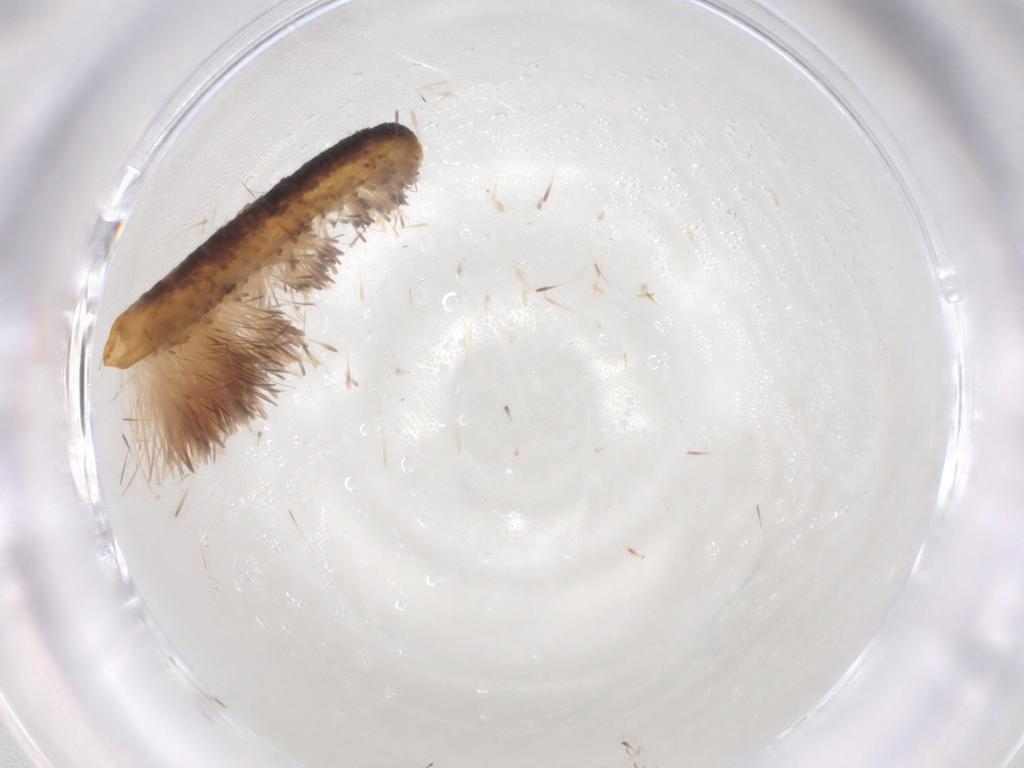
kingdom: Animalia
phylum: Arthropoda
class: Insecta
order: Lepidoptera
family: Noctuidae
